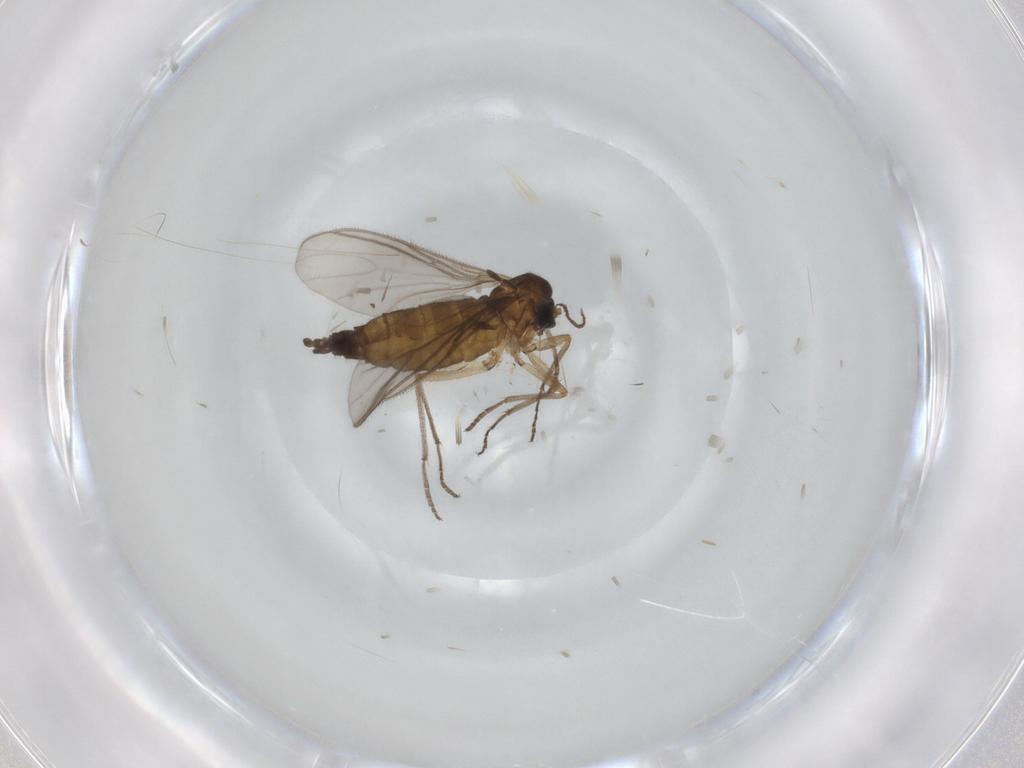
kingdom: Animalia
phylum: Arthropoda
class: Insecta
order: Diptera
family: Sciaridae
